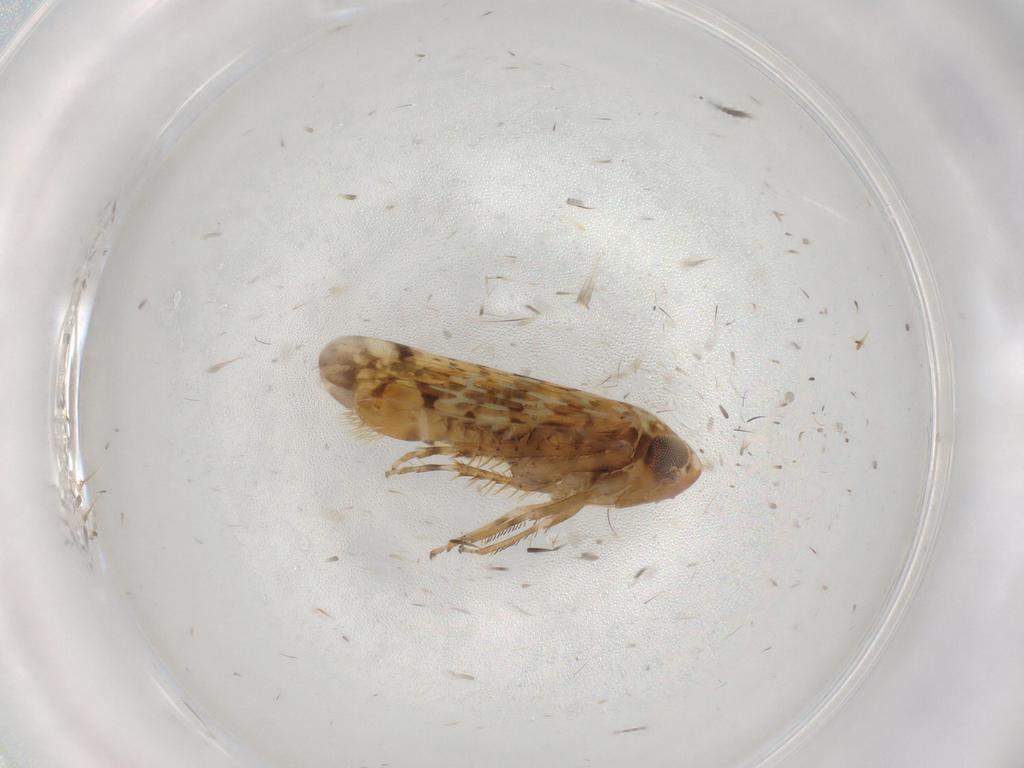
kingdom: Animalia
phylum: Arthropoda
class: Insecta
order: Hemiptera
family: Cicadellidae
